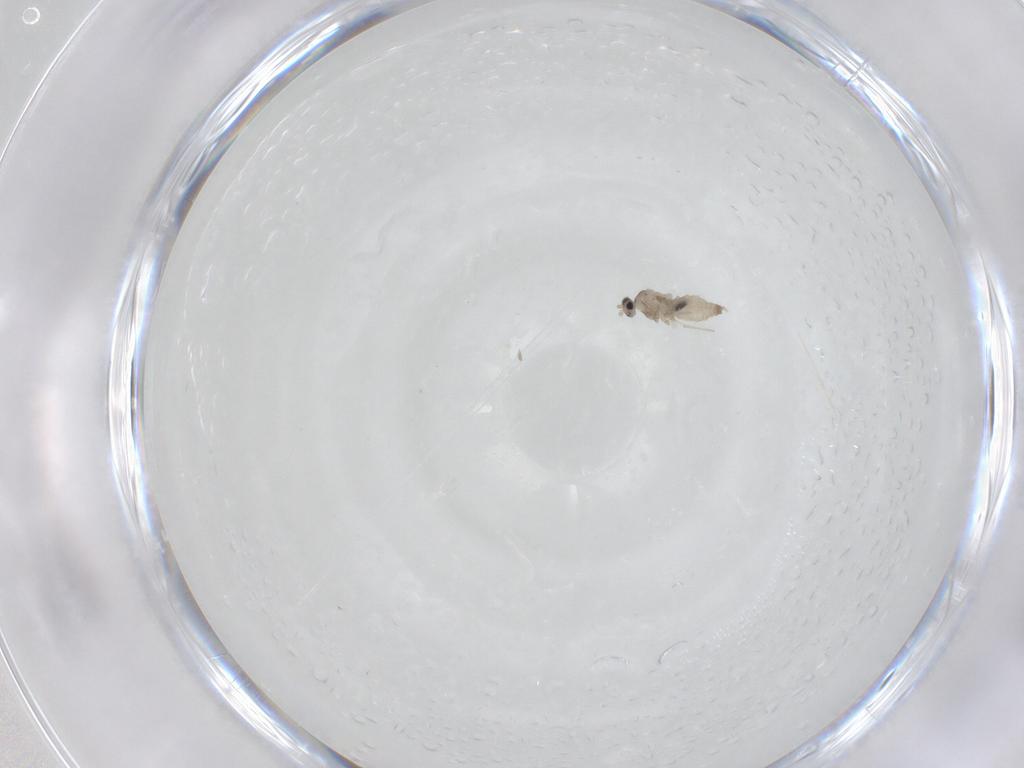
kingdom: Animalia
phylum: Arthropoda
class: Insecta
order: Diptera
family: Cecidomyiidae
